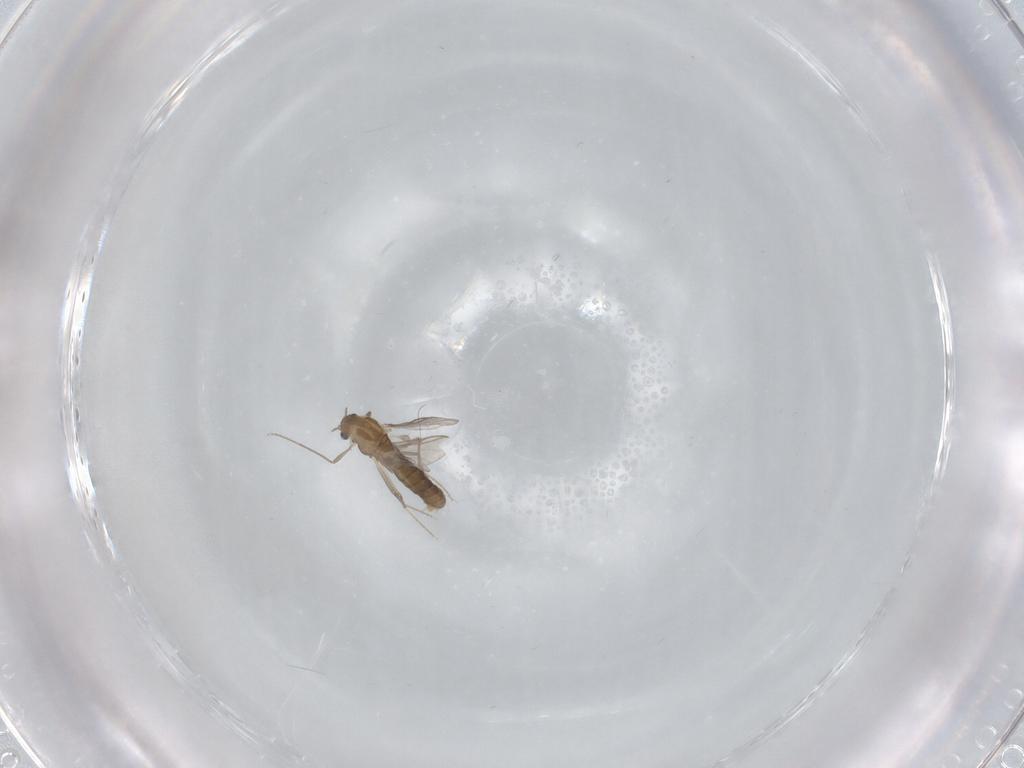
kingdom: Animalia
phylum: Arthropoda
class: Insecta
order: Diptera
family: Chironomidae
